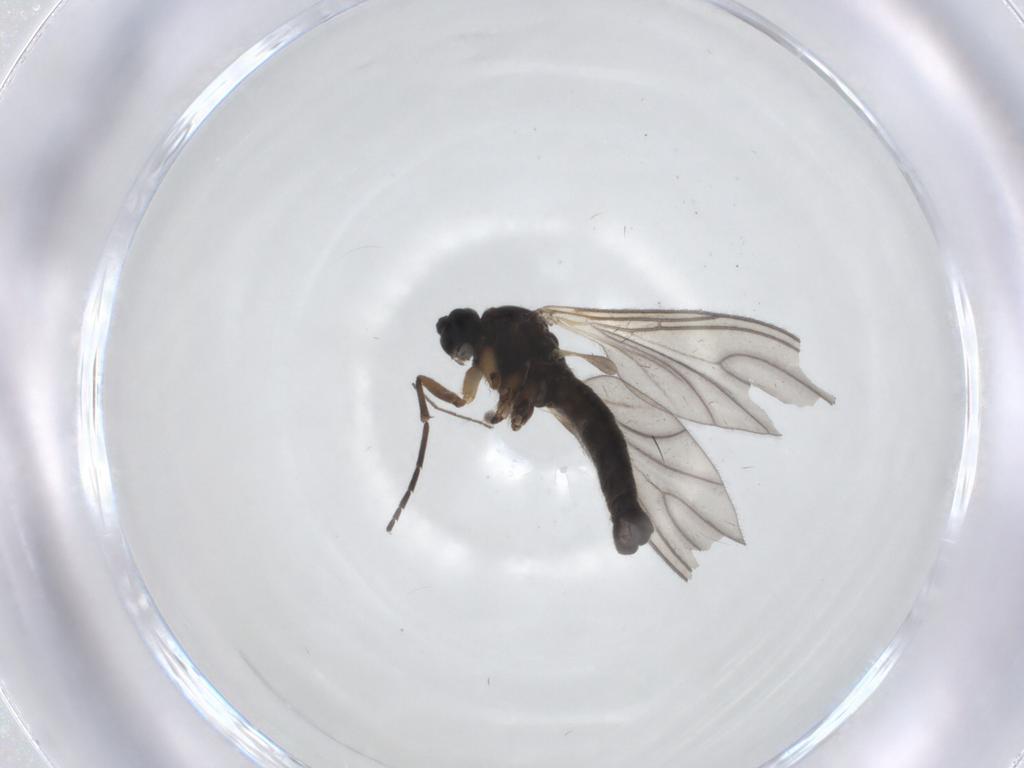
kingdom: Animalia
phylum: Arthropoda
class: Insecta
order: Diptera
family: Sciaridae
